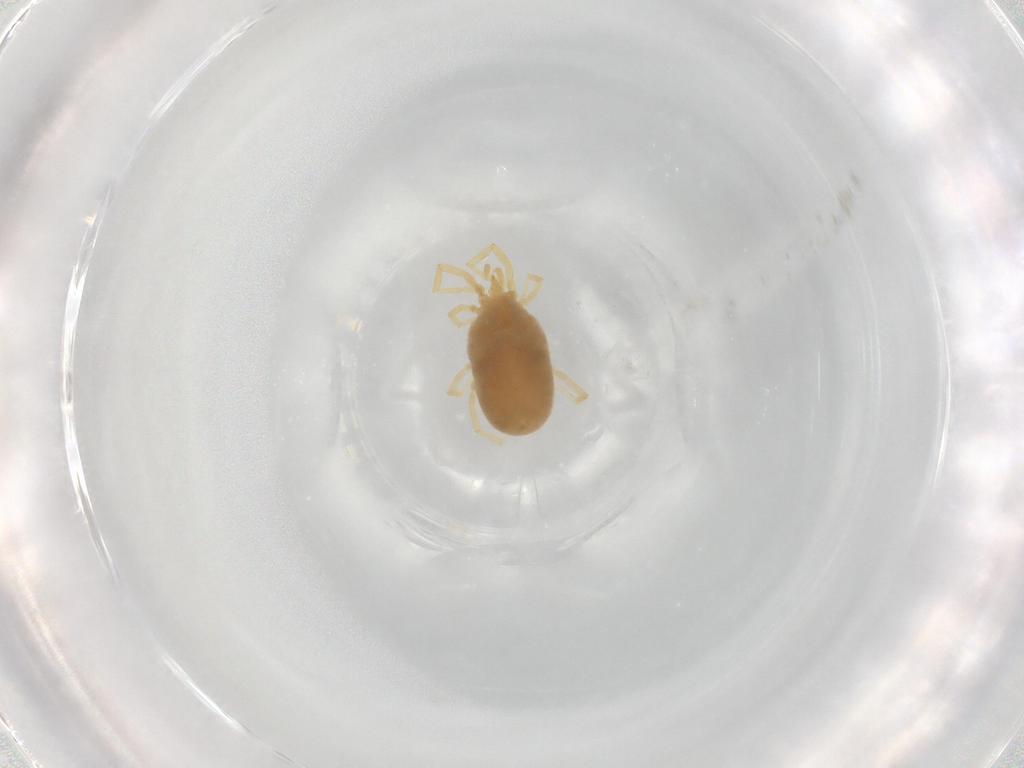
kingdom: Animalia
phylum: Arthropoda
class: Arachnida
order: Trombidiformes
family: Erythraeidae
